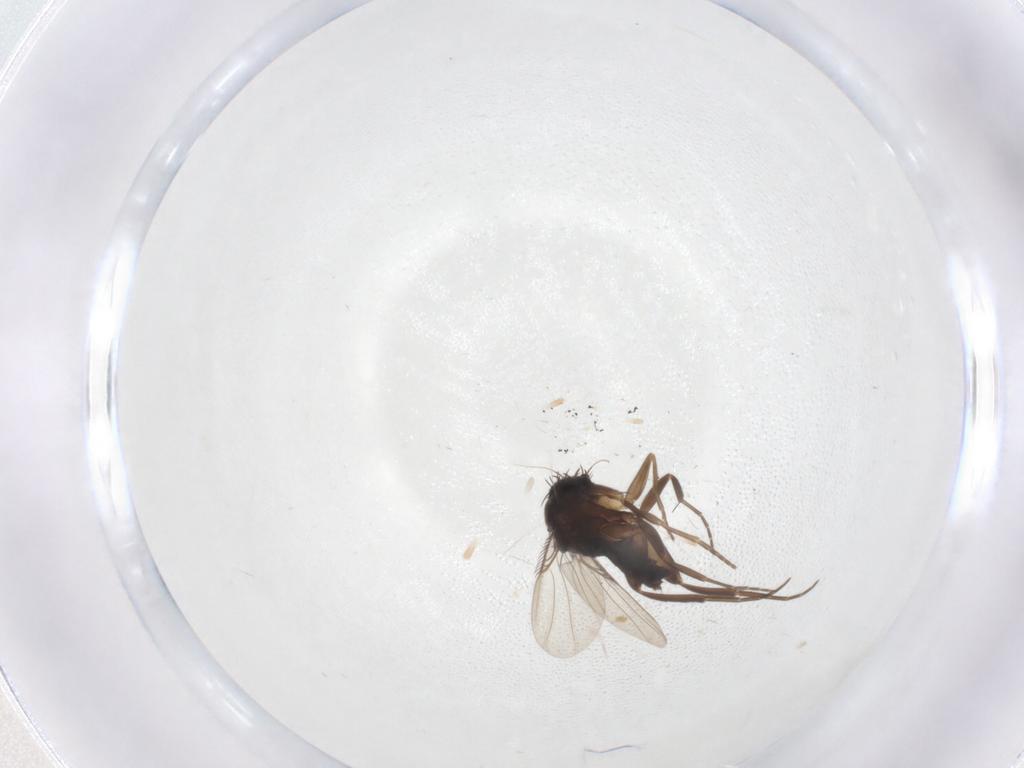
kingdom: Animalia
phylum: Arthropoda
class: Insecta
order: Diptera
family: Phoridae
